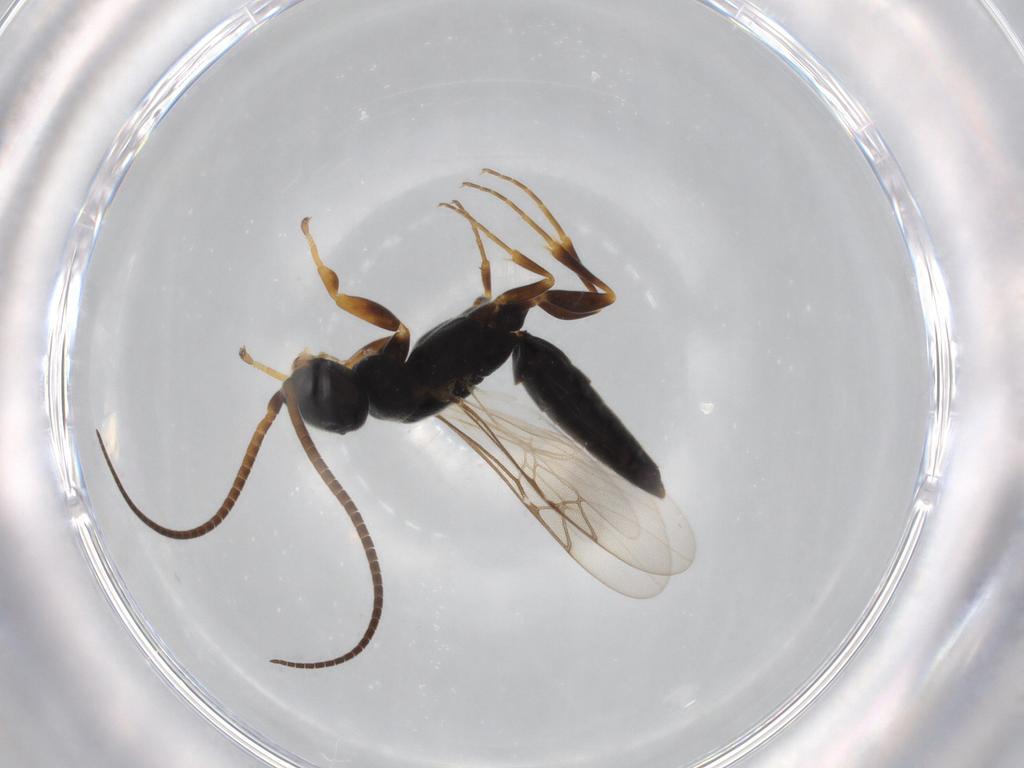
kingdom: Animalia
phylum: Arthropoda
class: Insecta
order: Hymenoptera
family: Sclerogibbidae
